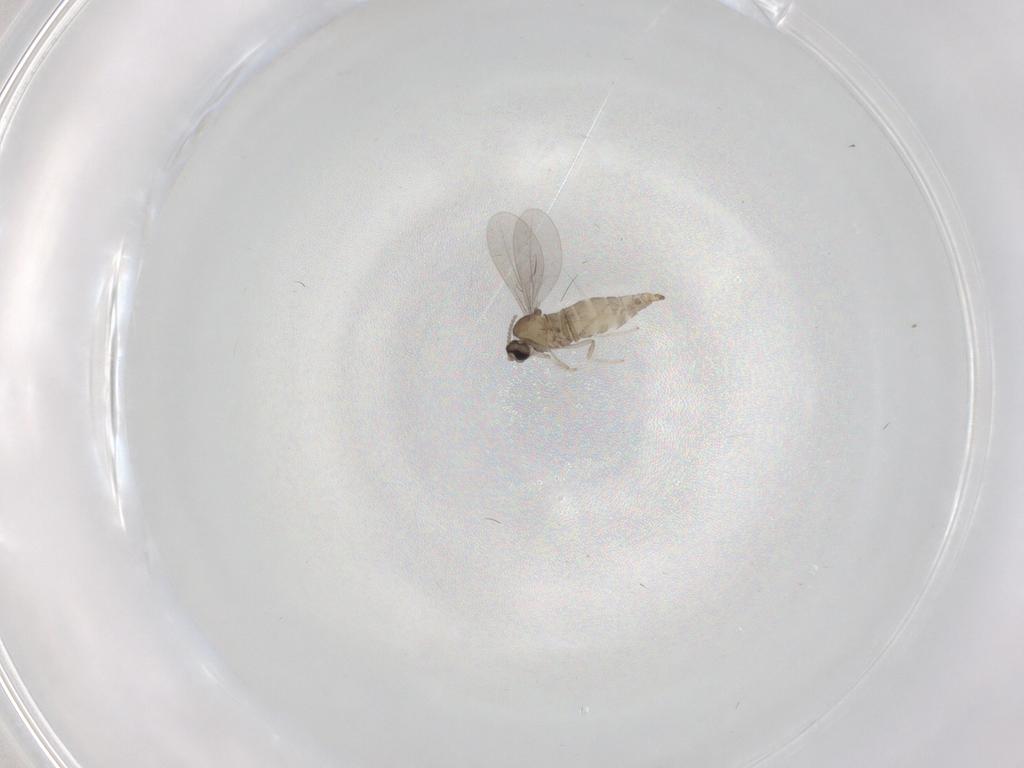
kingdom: Animalia
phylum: Arthropoda
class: Insecta
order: Diptera
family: Cecidomyiidae
